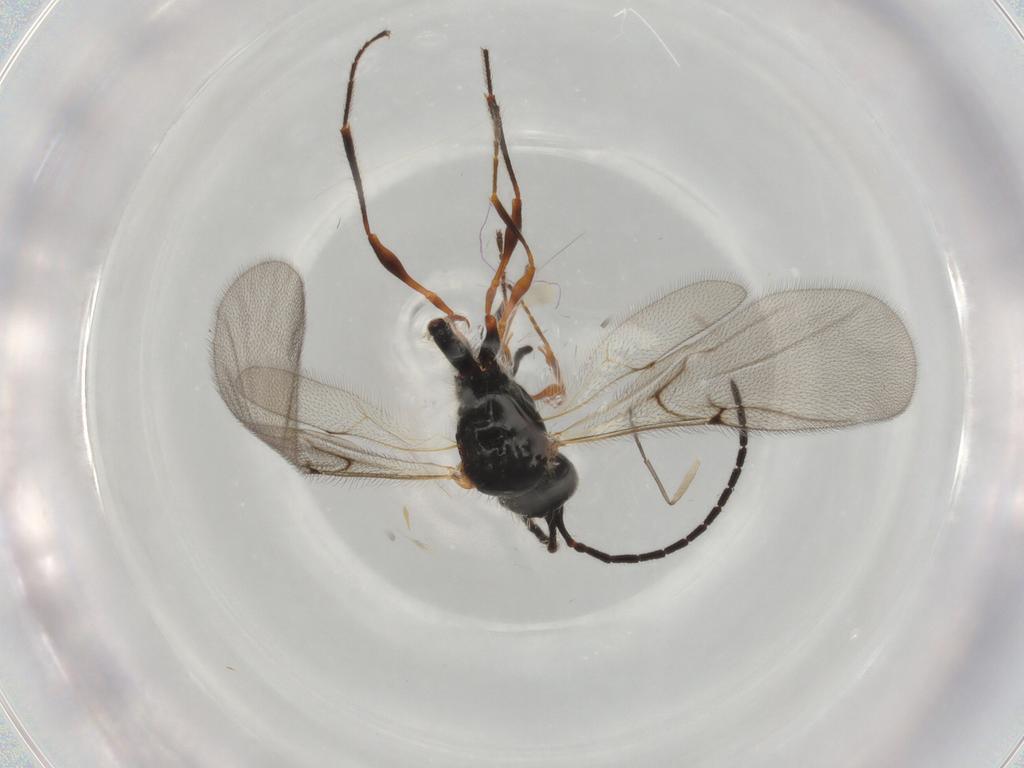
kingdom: Animalia
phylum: Arthropoda
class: Insecta
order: Hymenoptera
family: Diapriidae
